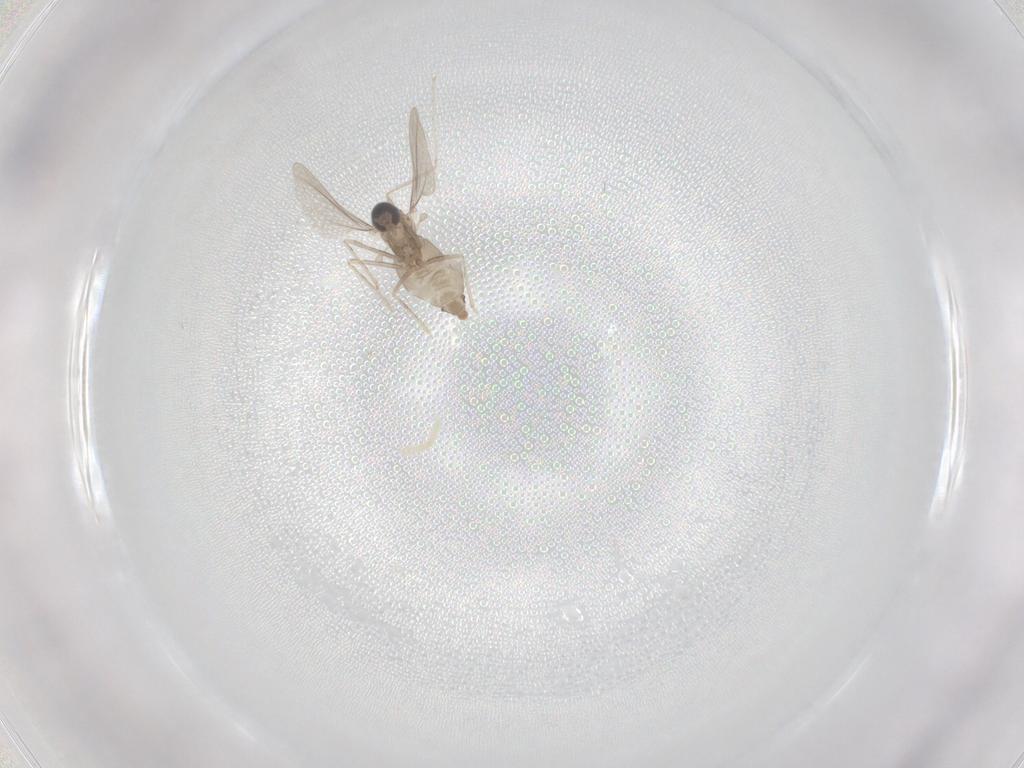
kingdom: Animalia
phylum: Arthropoda
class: Insecta
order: Diptera
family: Cecidomyiidae
